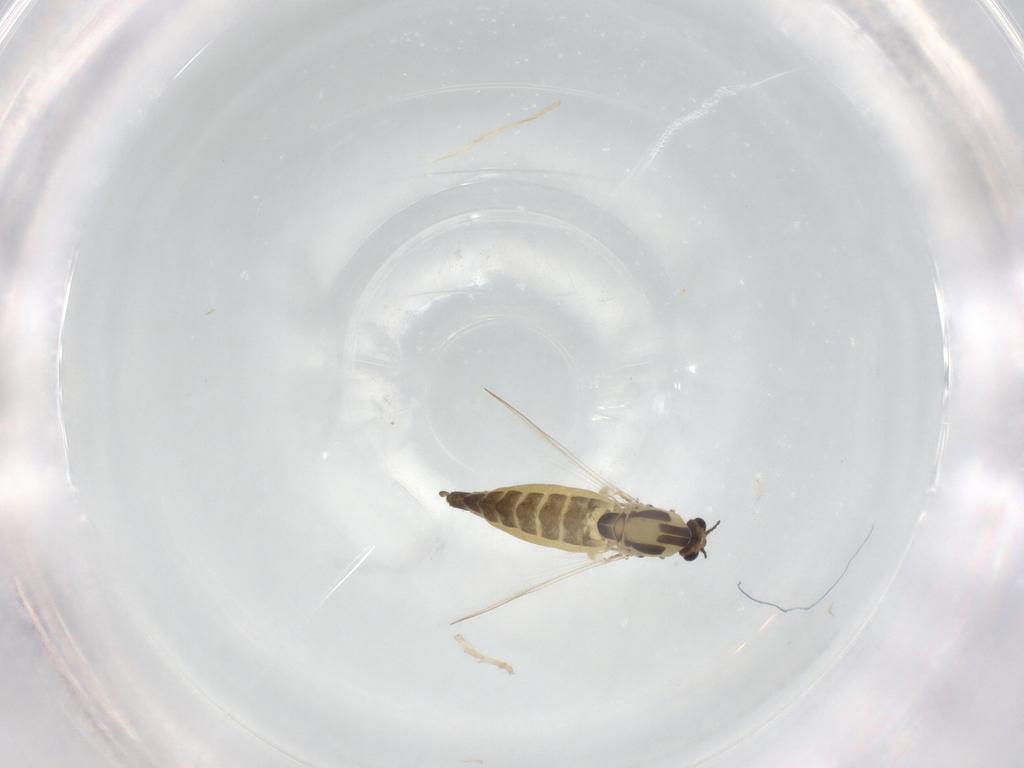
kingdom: Animalia
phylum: Arthropoda
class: Insecta
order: Diptera
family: Chironomidae
